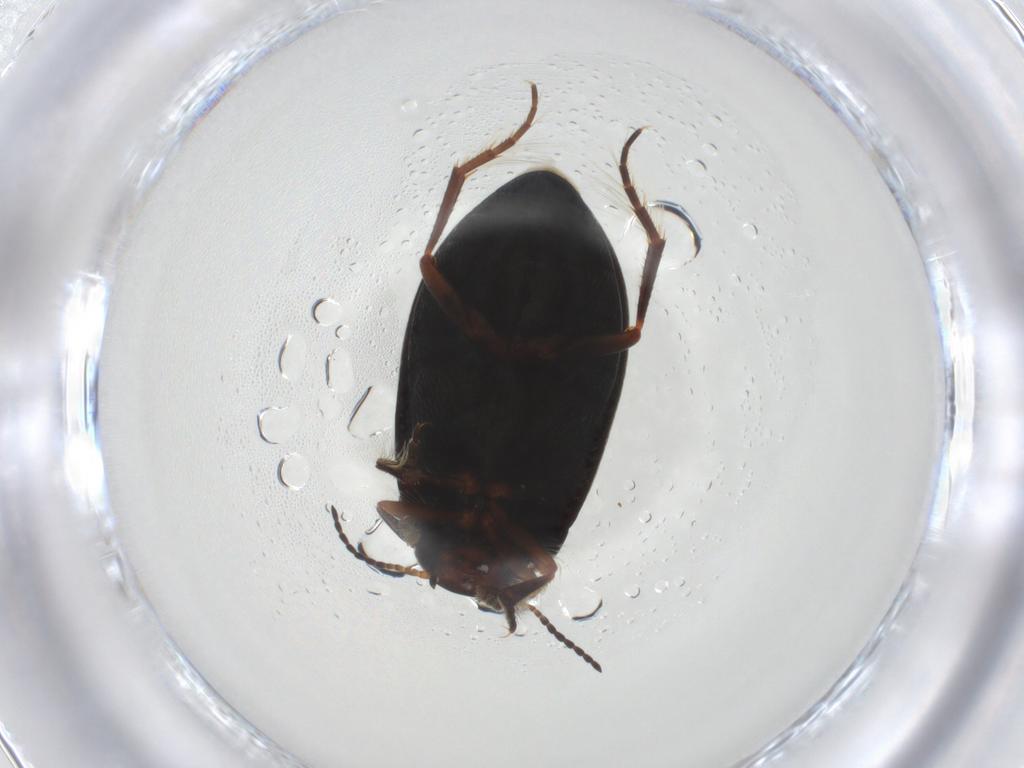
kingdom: Animalia
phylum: Arthropoda
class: Insecta
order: Coleoptera
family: Dytiscidae
